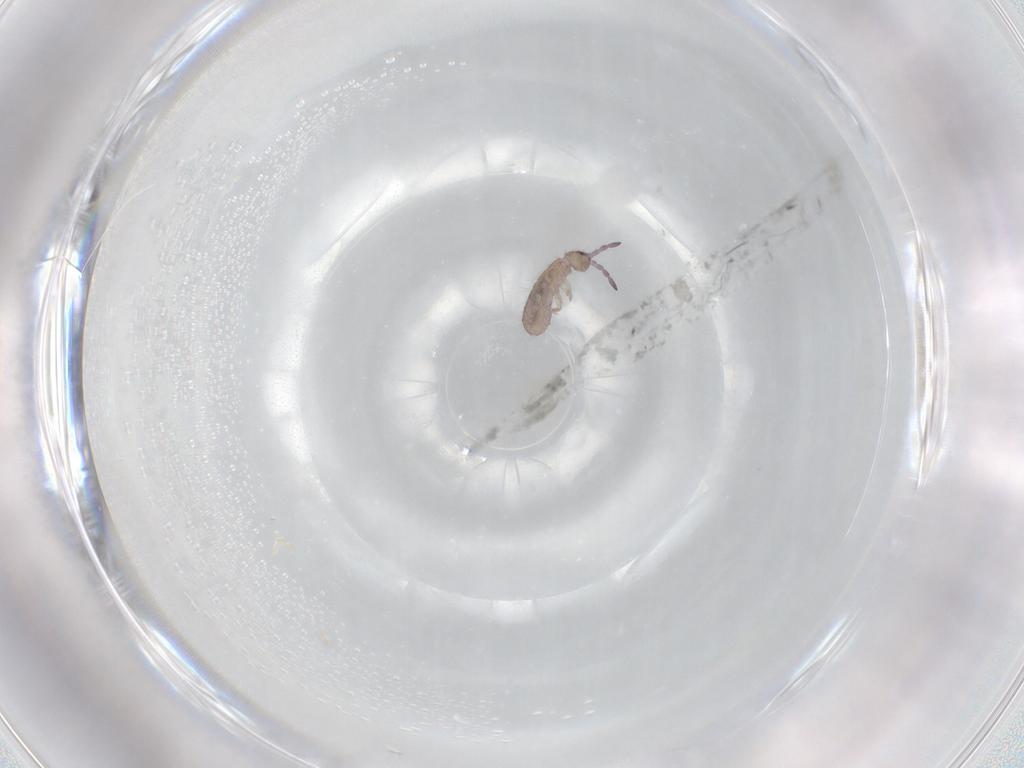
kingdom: Animalia
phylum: Arthropoda
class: Collembola
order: Entomobryomorpha
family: Isotomidae
